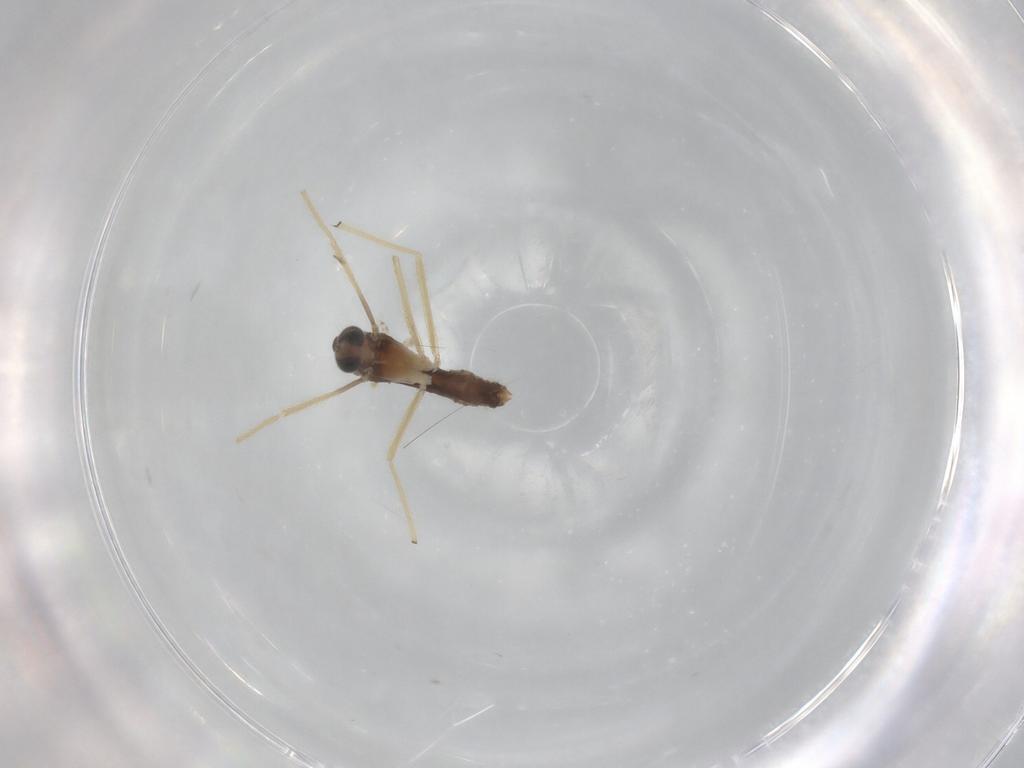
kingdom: Animalia
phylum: Arthropoda
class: Insecta
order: Diptera
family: Chironomidae
